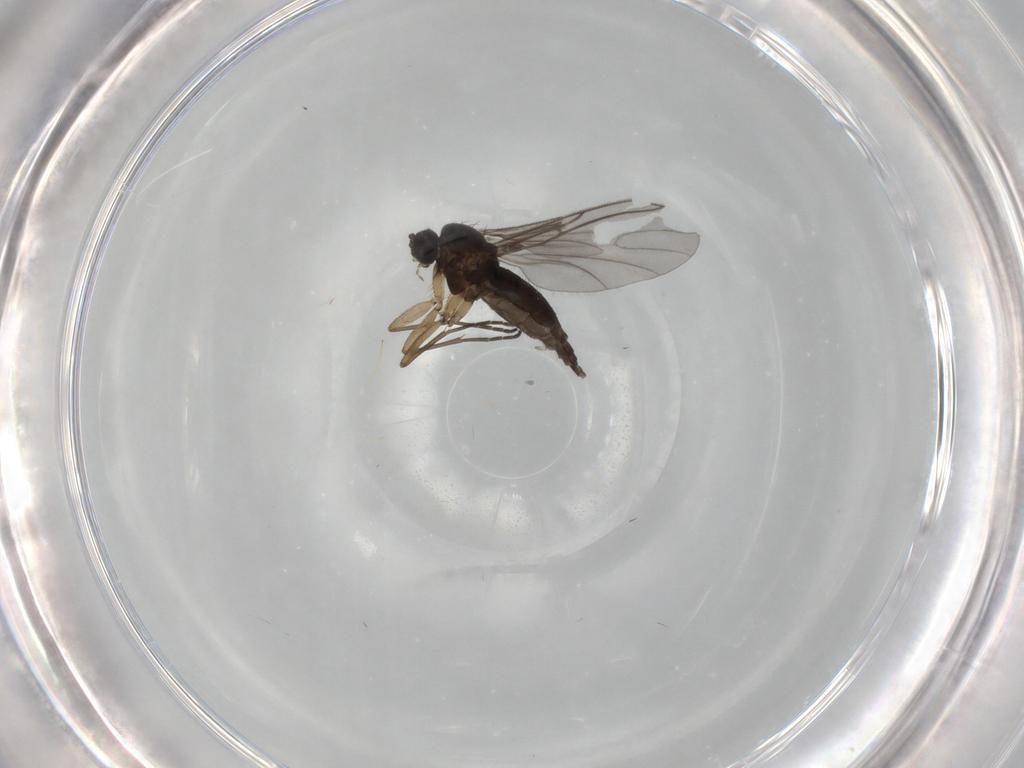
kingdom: Animalia
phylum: Arthropoda
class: Insecta
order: Diptera
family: Sciaridae
